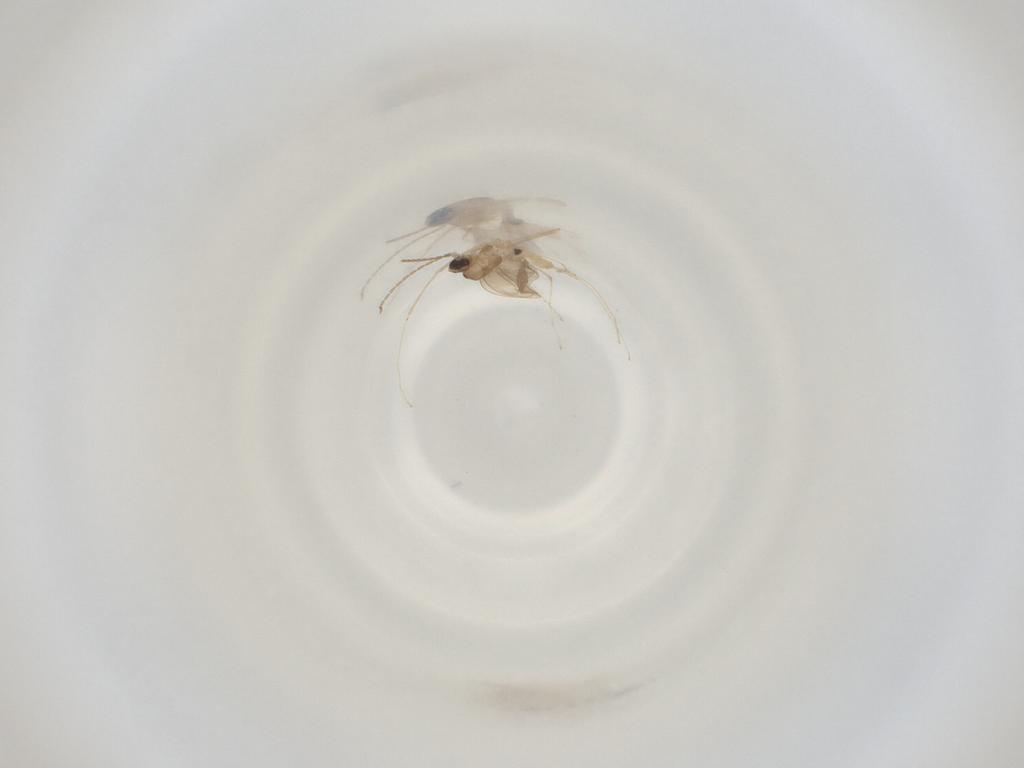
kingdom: Animalia
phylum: Arthropoda
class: Insecta
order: Diptera
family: Cecidomyiidae
